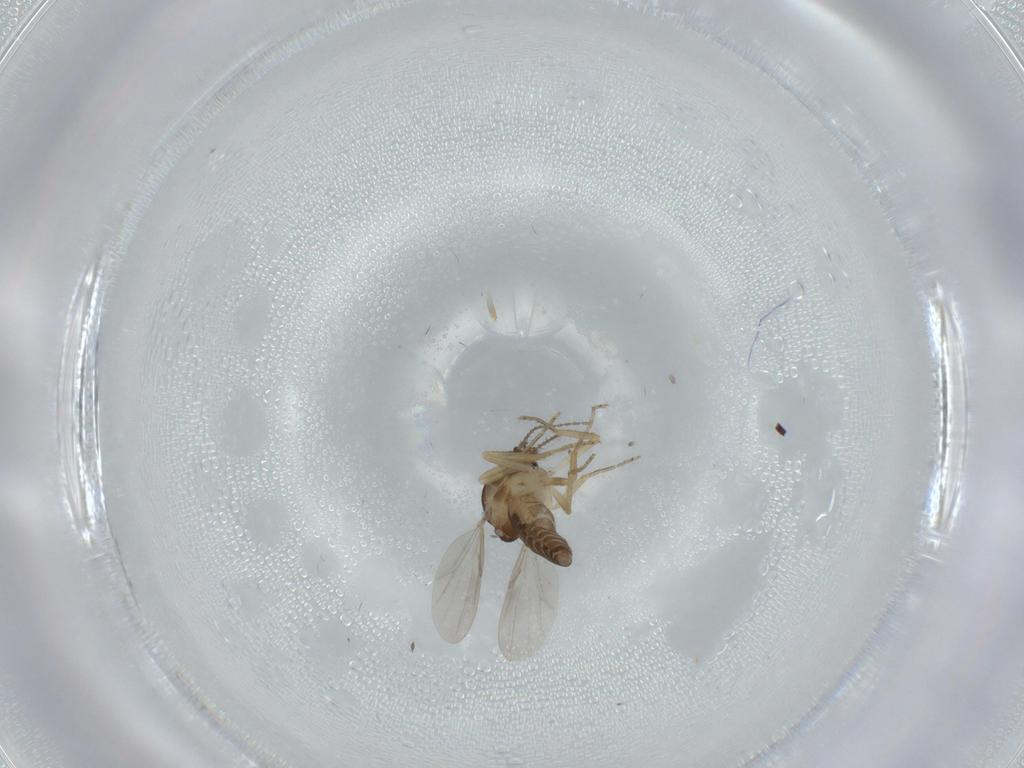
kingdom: Animalia
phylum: Arthropoda
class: Insecta
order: Diptera
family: Ceratopogonidae
